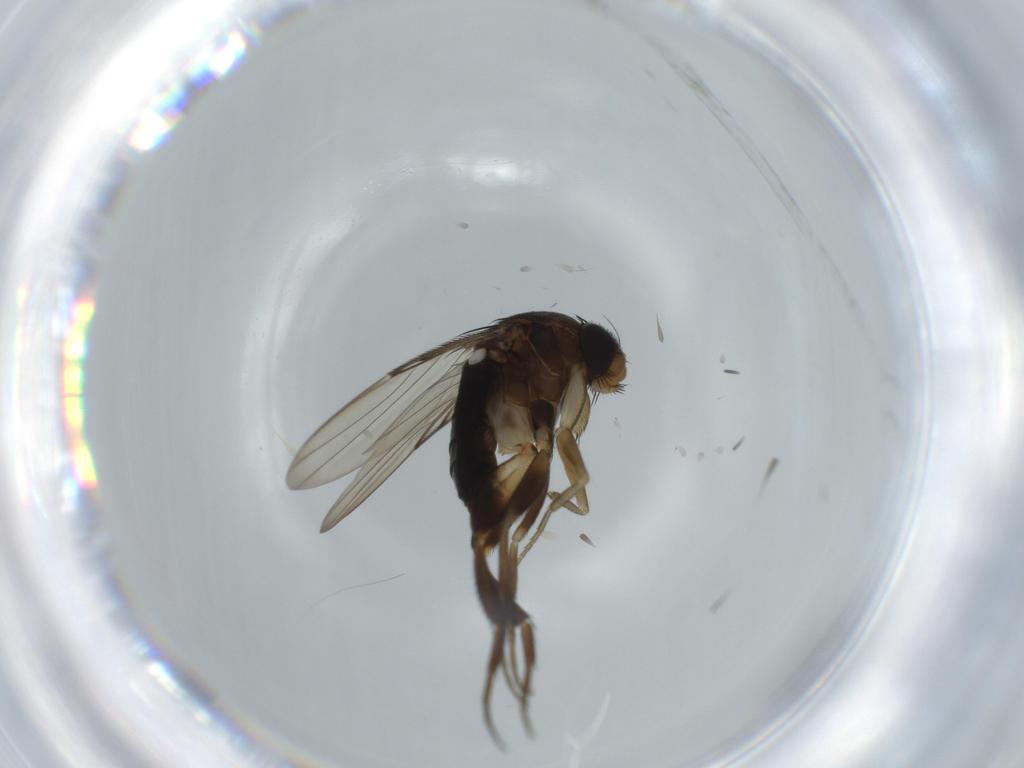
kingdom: Animalia
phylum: Arthropoda
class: Insecta
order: Diptera
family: Phoridae
